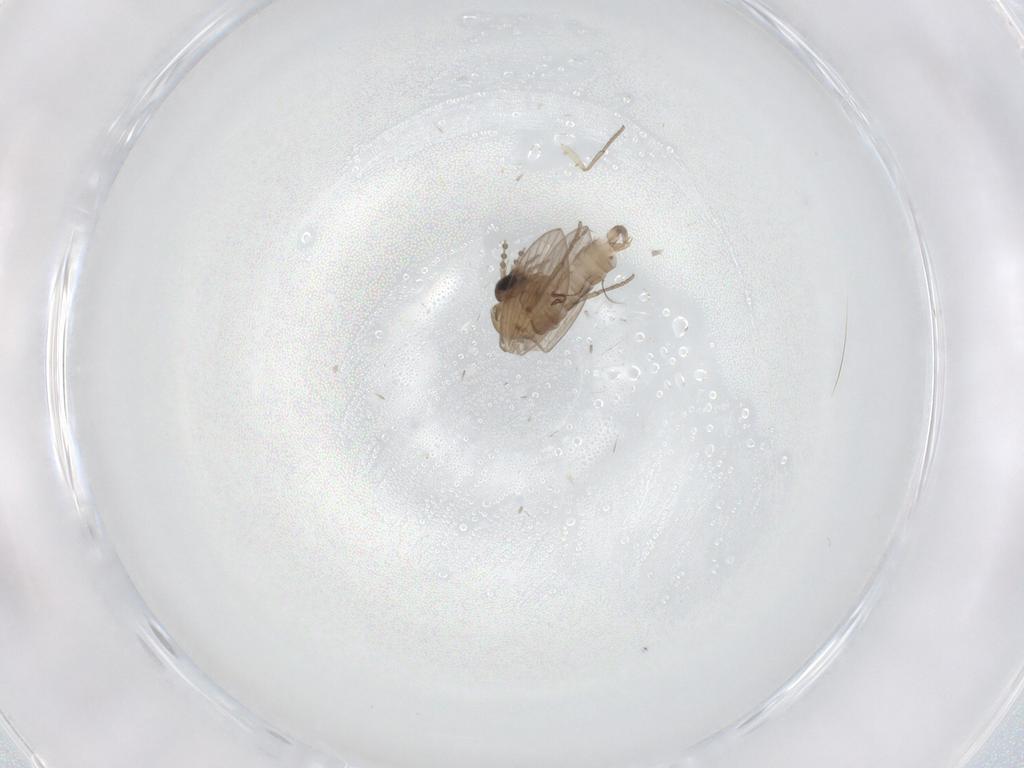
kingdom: Animalia
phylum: Arthropoda
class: Insecta
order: Diptera
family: Psychodidae
